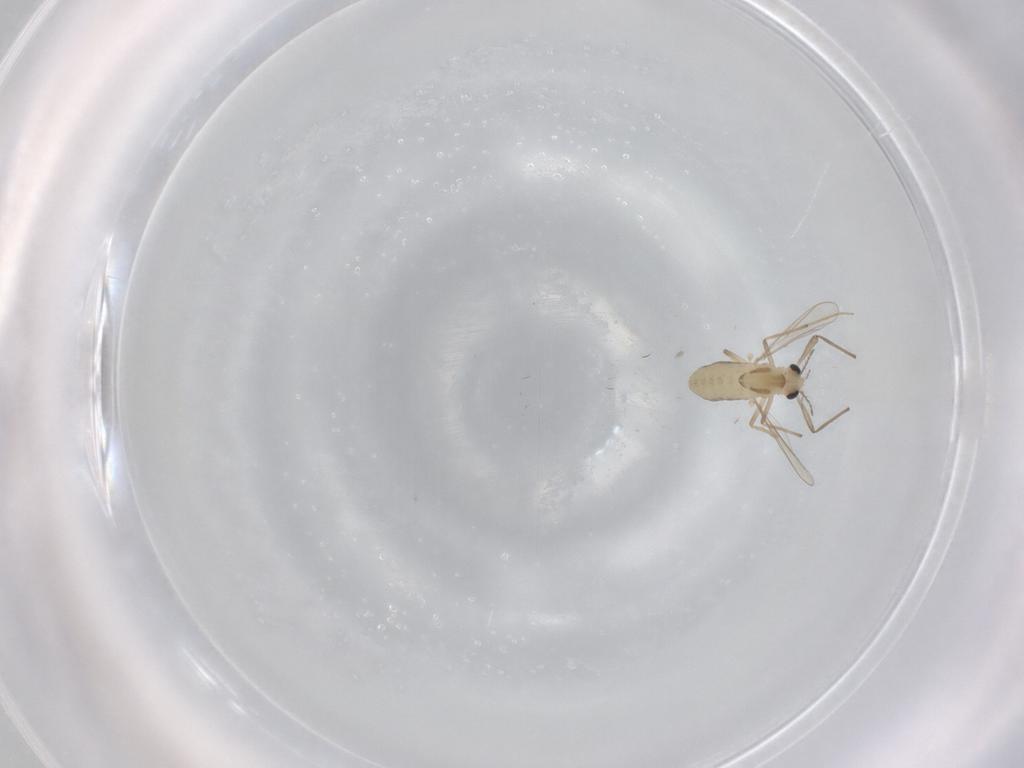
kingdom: Animalia
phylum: Arthropoda
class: Insecta
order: Diptera
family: Chironomidae
